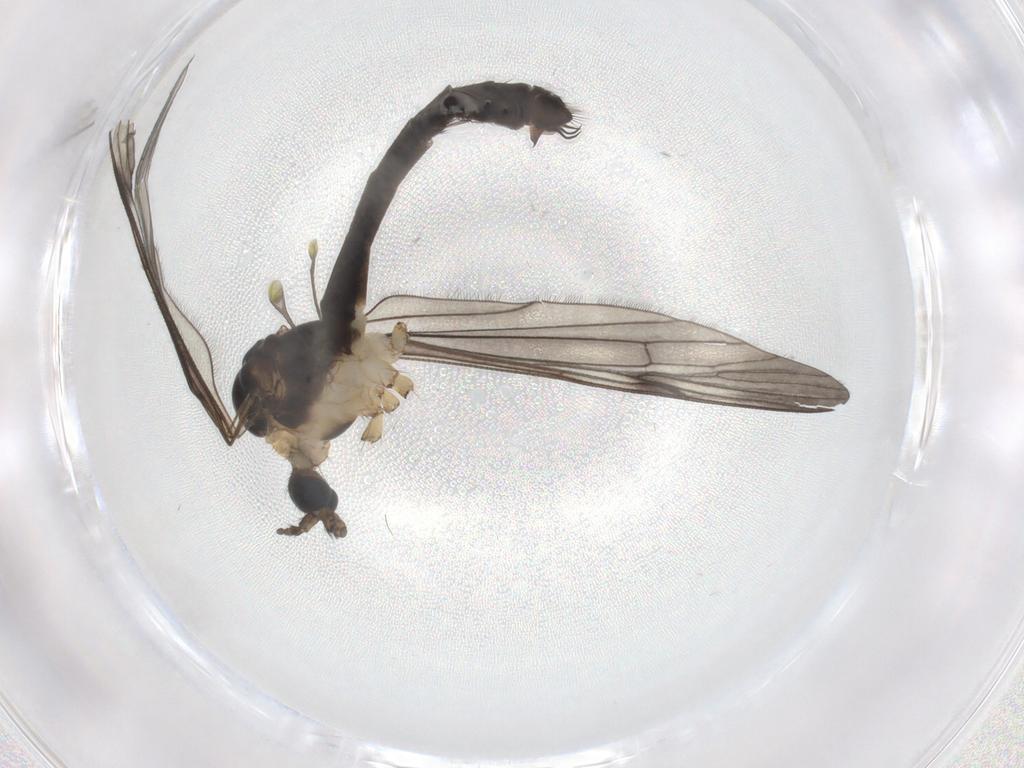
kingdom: Animalia
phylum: Arthropoda
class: Insecta
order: Diptera
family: Limoniidae
